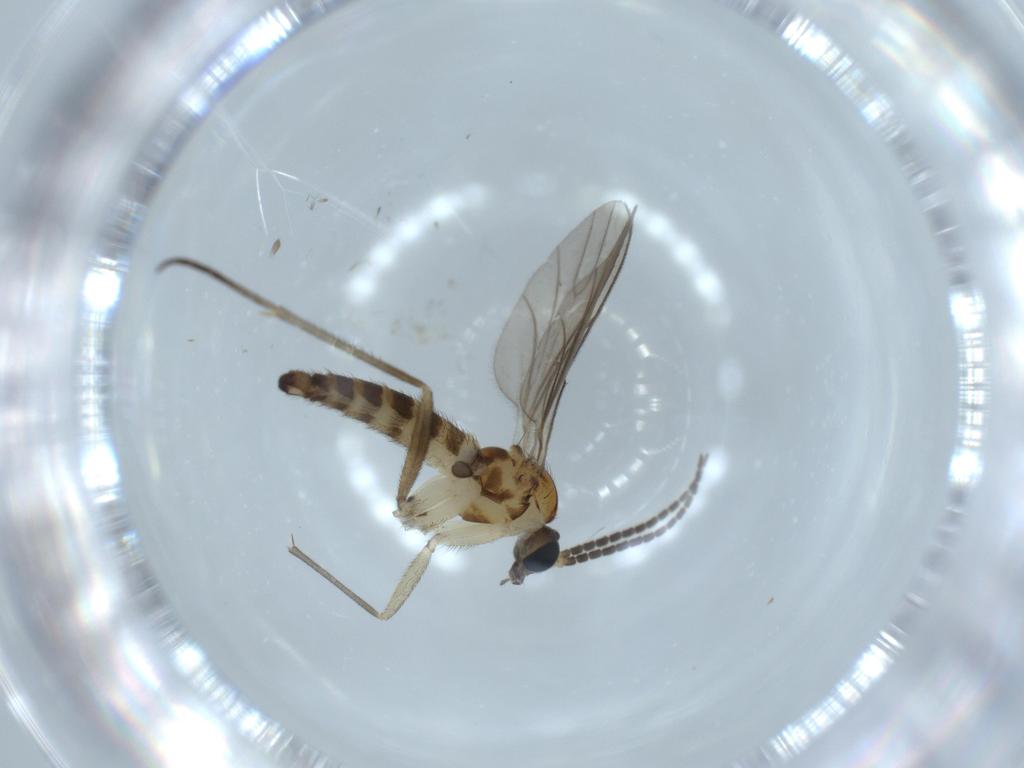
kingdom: Animalia
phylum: Arthropoda
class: Insecta
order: Diptera
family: Sciaridae
